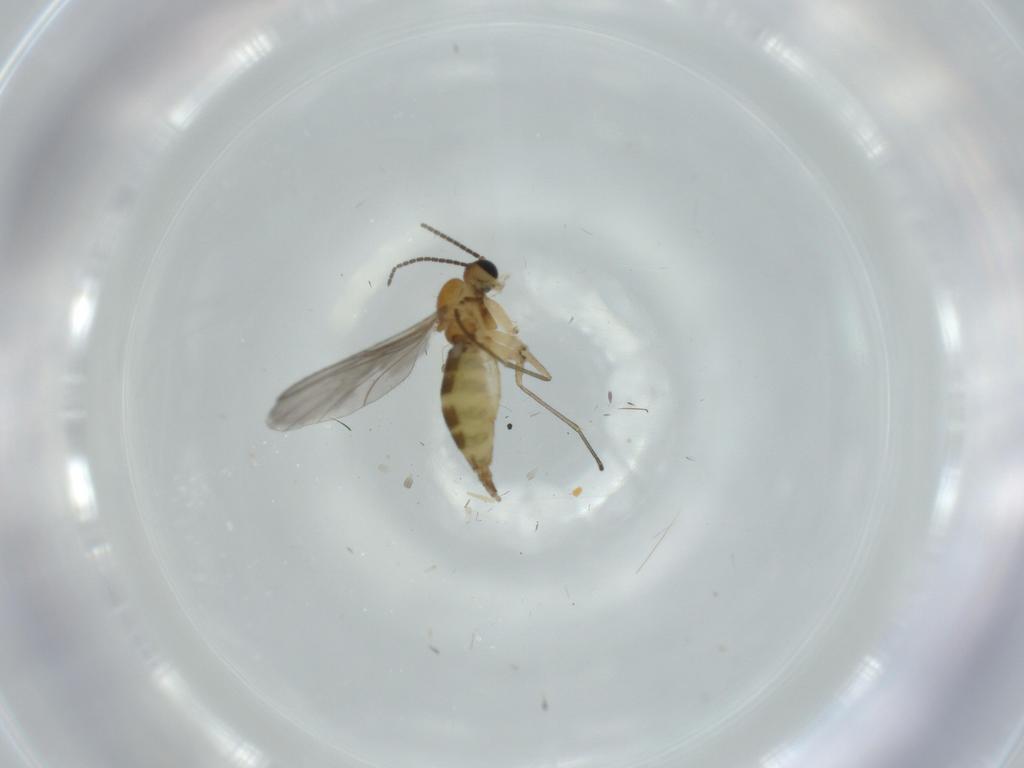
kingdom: Animalia
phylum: Arthropoda
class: Insecta
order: Diptera
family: Cecidomyiidae
